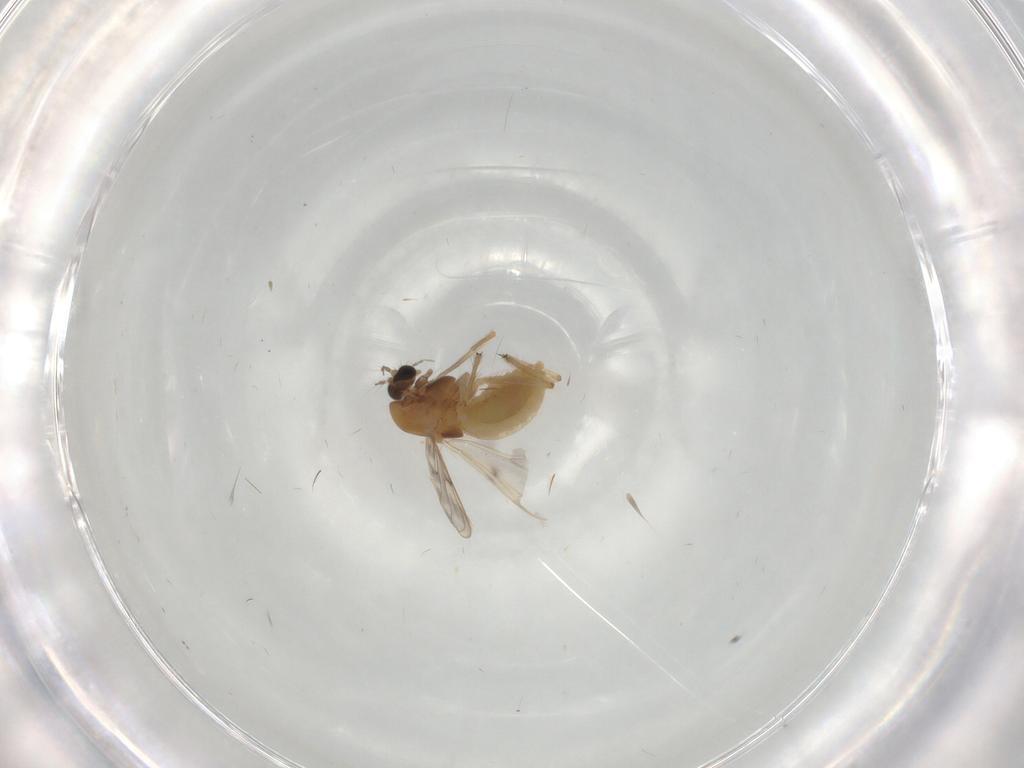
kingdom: Animalia
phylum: Arthropoda
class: Insecta
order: Diptera
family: Chironomidae
